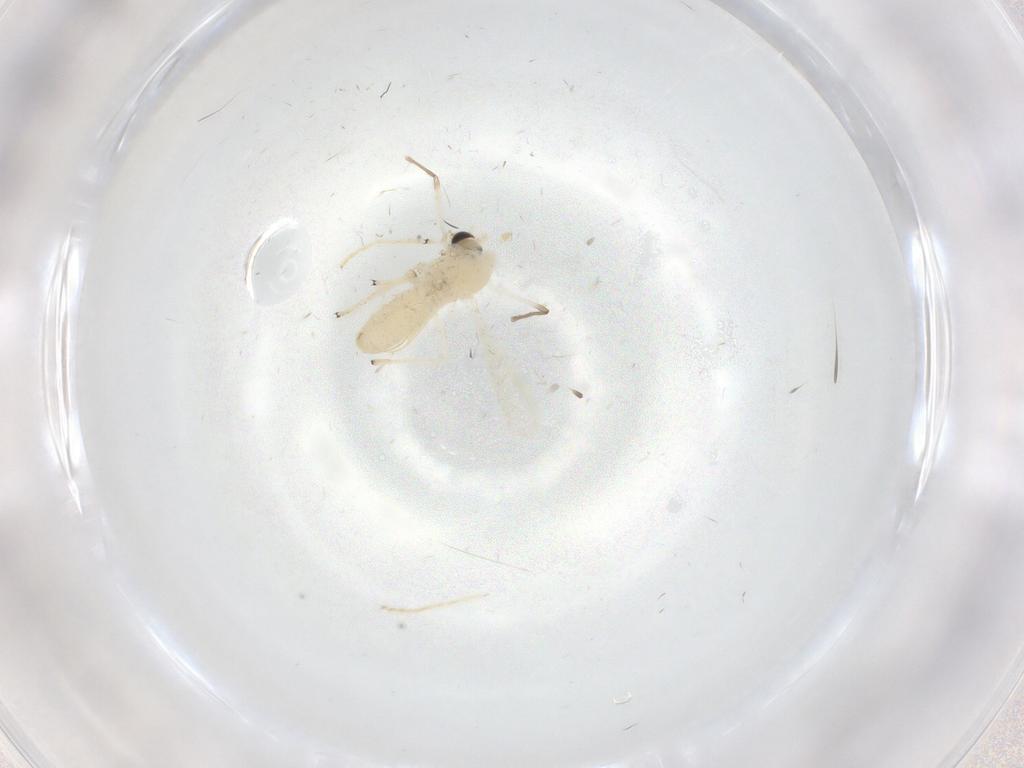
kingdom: Animalia
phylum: Arthropoda
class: Insecta
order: Diptera
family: Chironomidae
